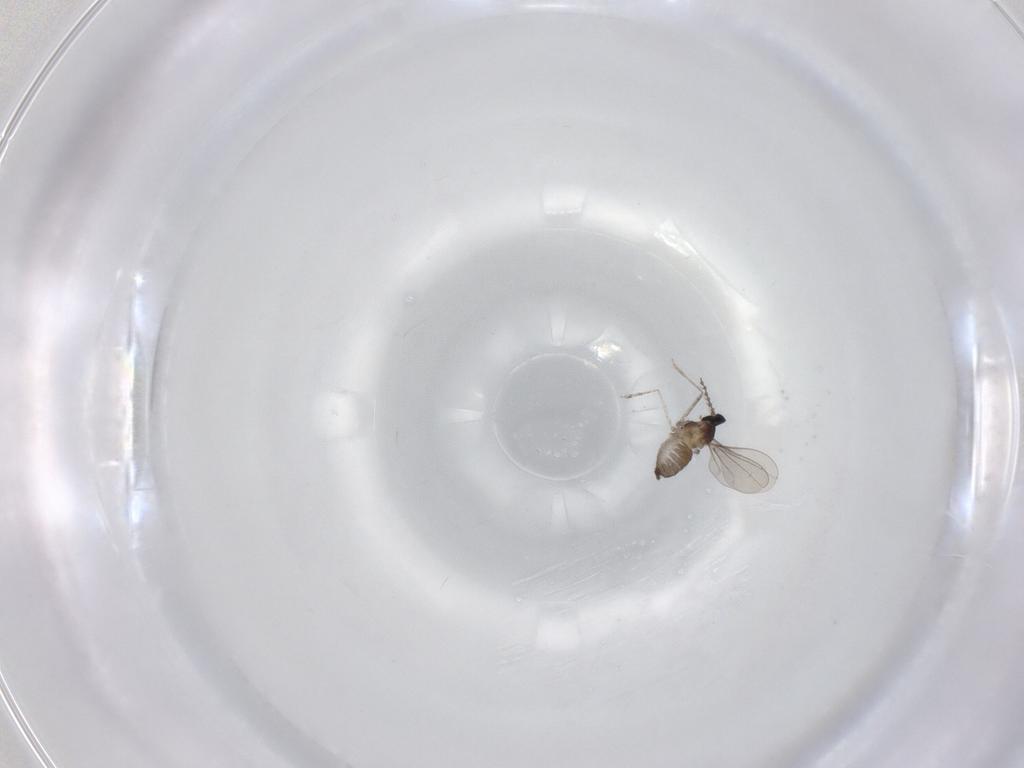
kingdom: Animalia
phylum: Arthropoda
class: Insecta
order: Diptera
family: Cecidomyiidae
